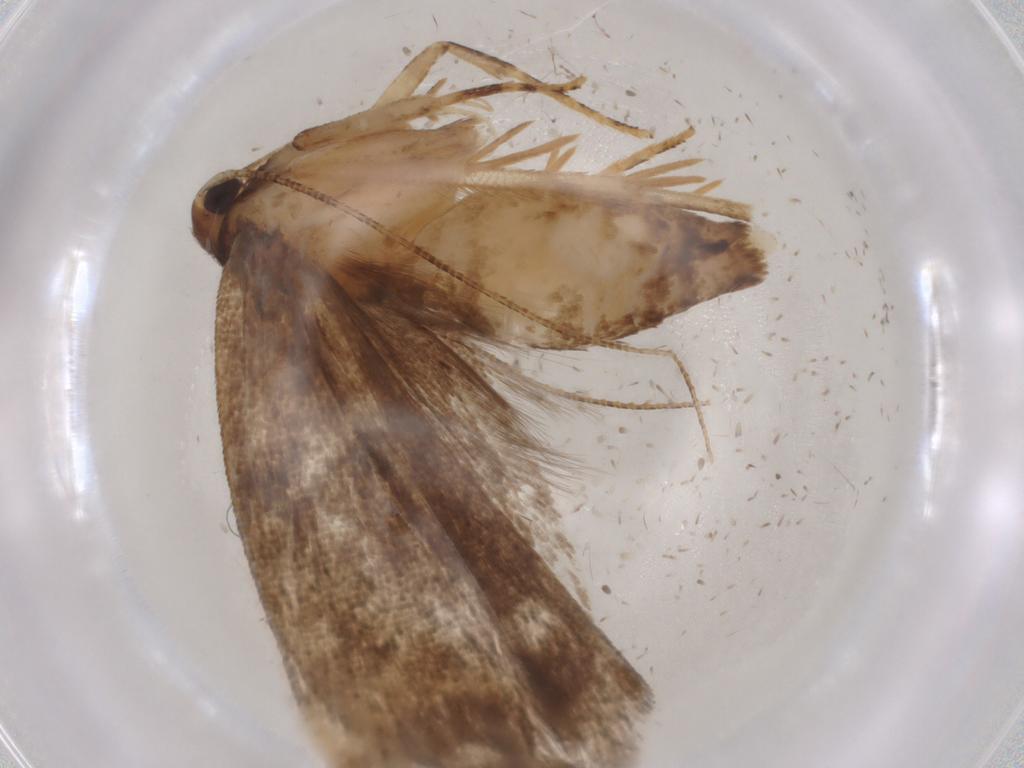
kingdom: Animalia
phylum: Arthropoda
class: Insecta
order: Lepidoptera
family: Gelechiidae
